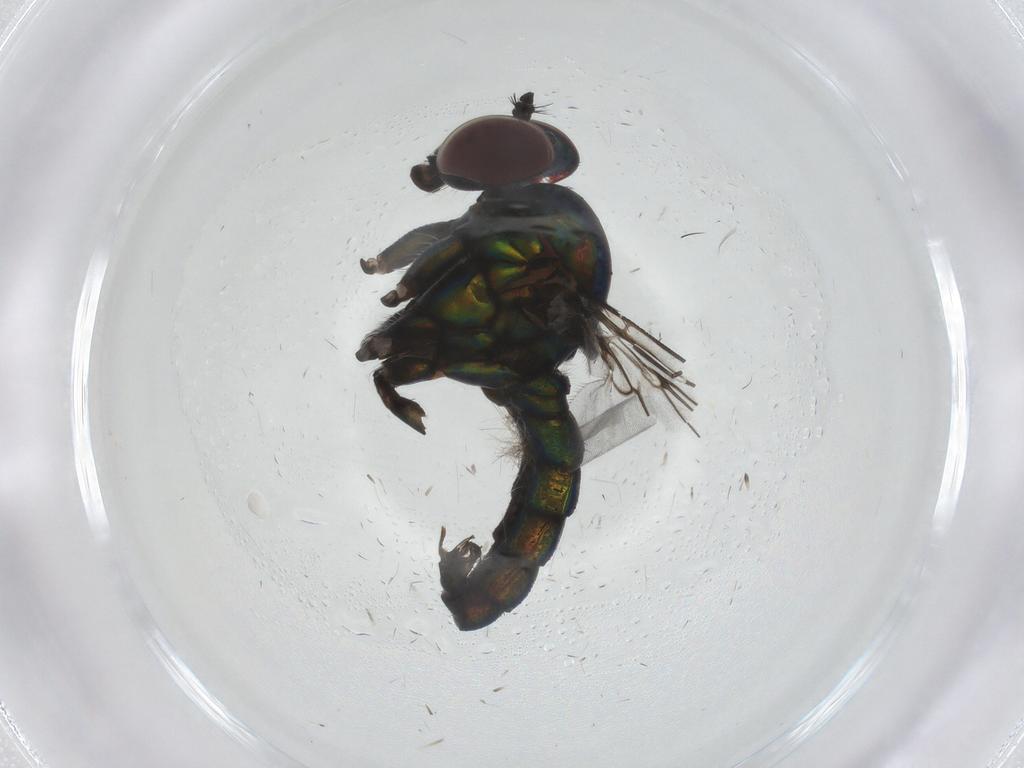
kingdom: Animalia
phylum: Arthropoda
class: Insecta
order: Diptera
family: Dolichopodidae
